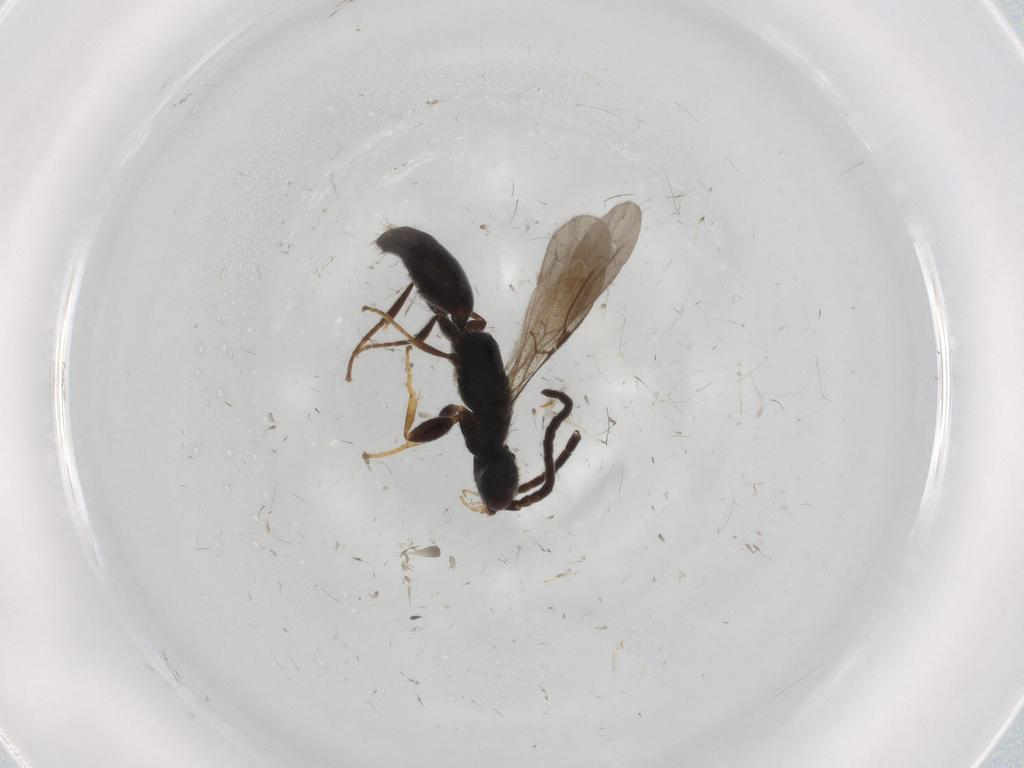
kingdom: Animalia
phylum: Arthropoda
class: Insecta
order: Hymenoptera
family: Bethylidae
